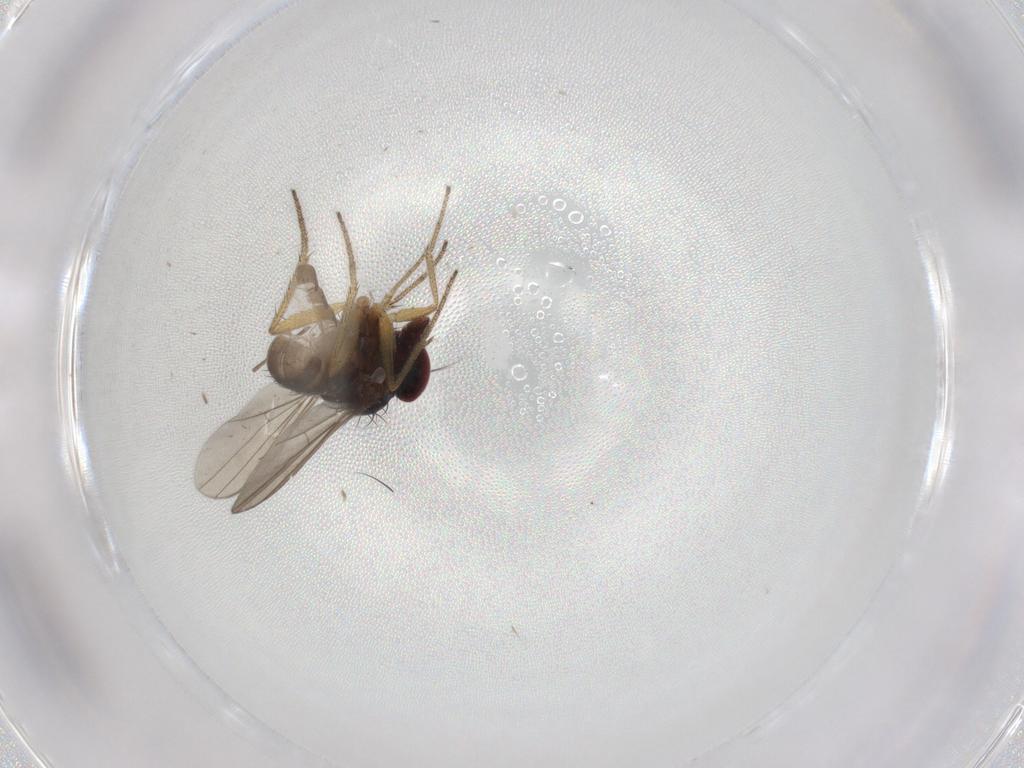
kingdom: Animalia
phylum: Arthropoda
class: Insecta
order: Diptera
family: Dolichopodidae
